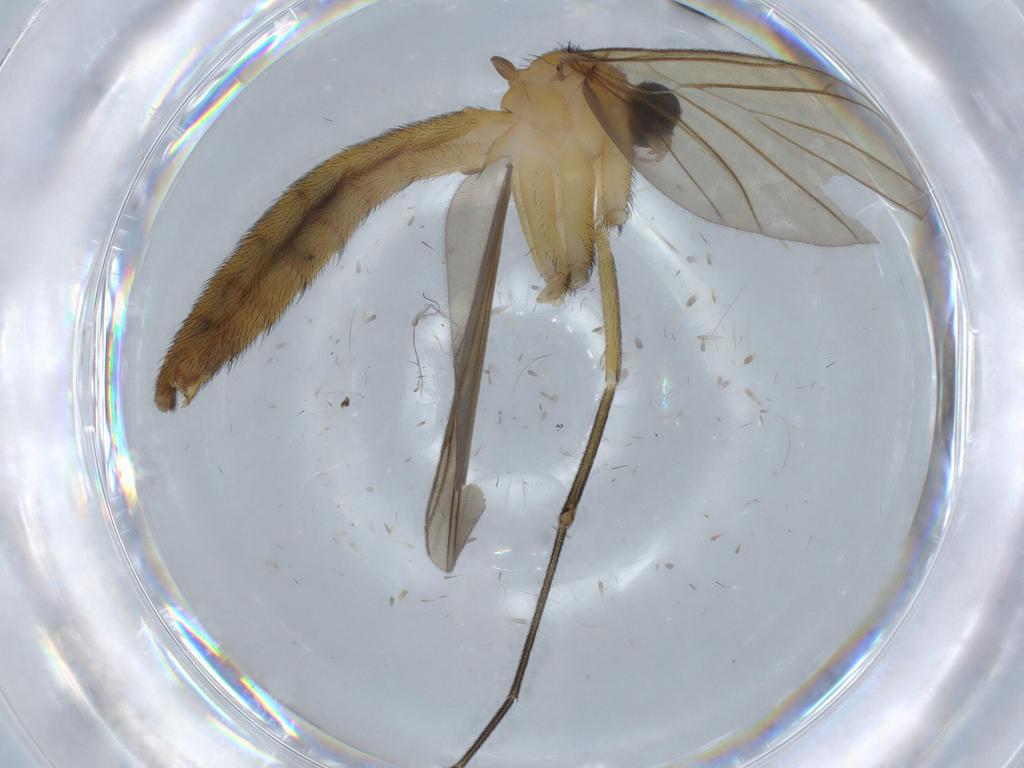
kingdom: Animalia
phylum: Arthropoda
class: Insecta
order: Diptera
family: Cecidomyiidae
